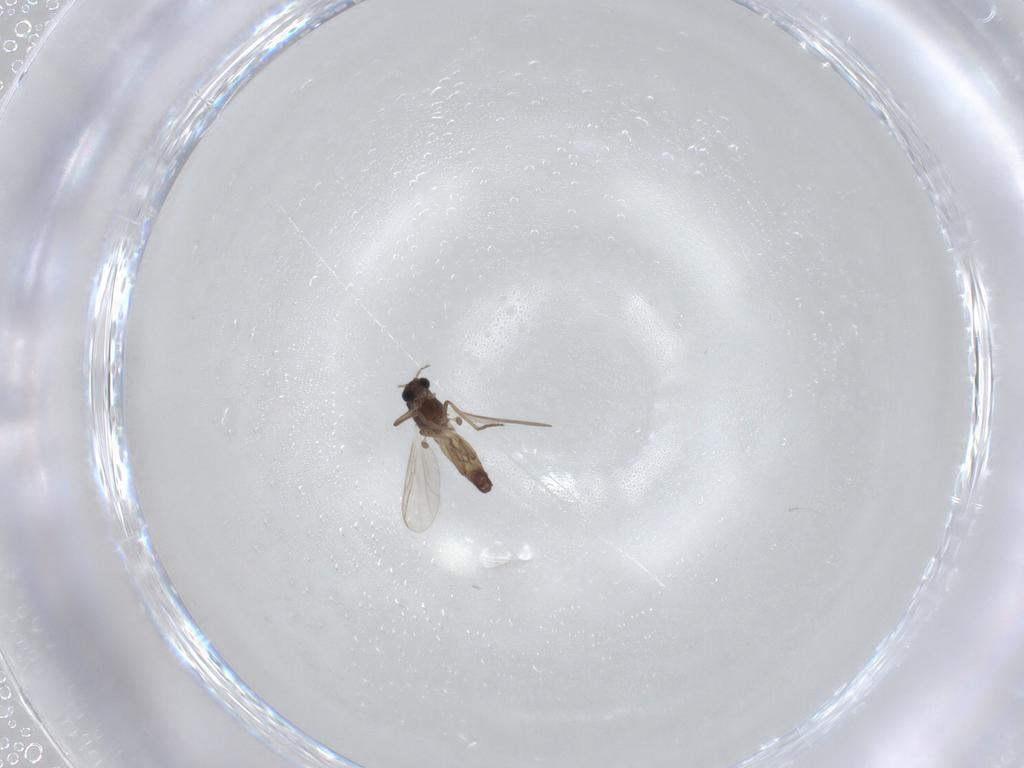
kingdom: Animalia
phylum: Arthropoda
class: Insecta
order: Diptera
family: Chironomidae
